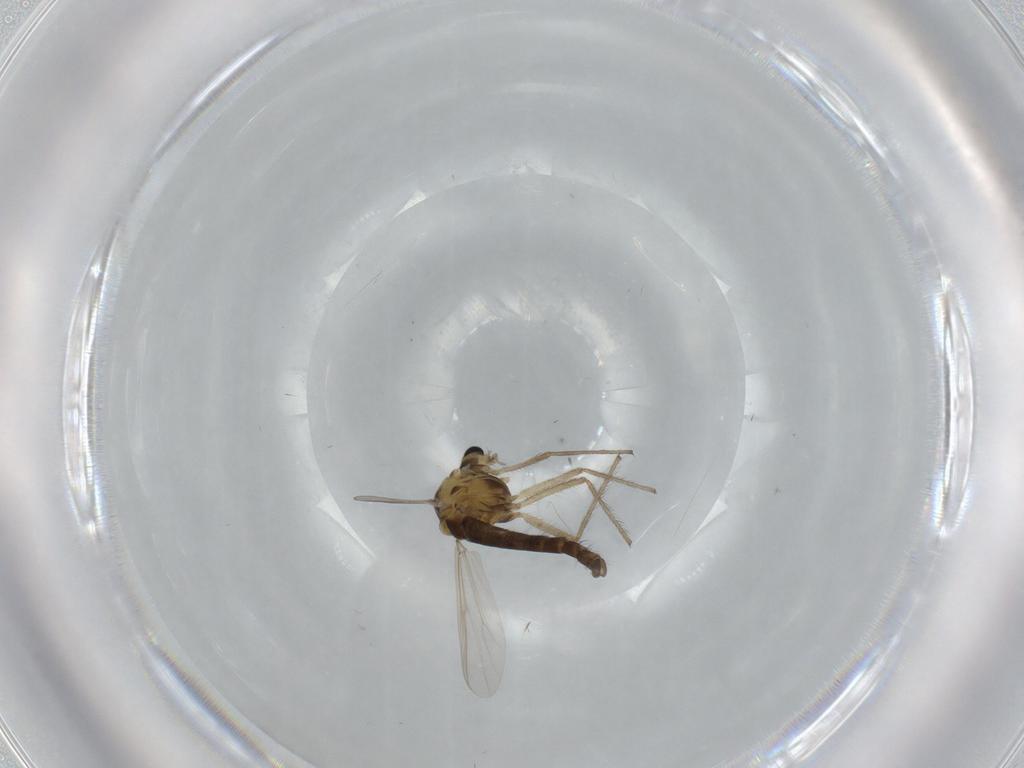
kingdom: Animalia
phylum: Arthropoda
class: Insecta
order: Diptera
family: Chironomidae
